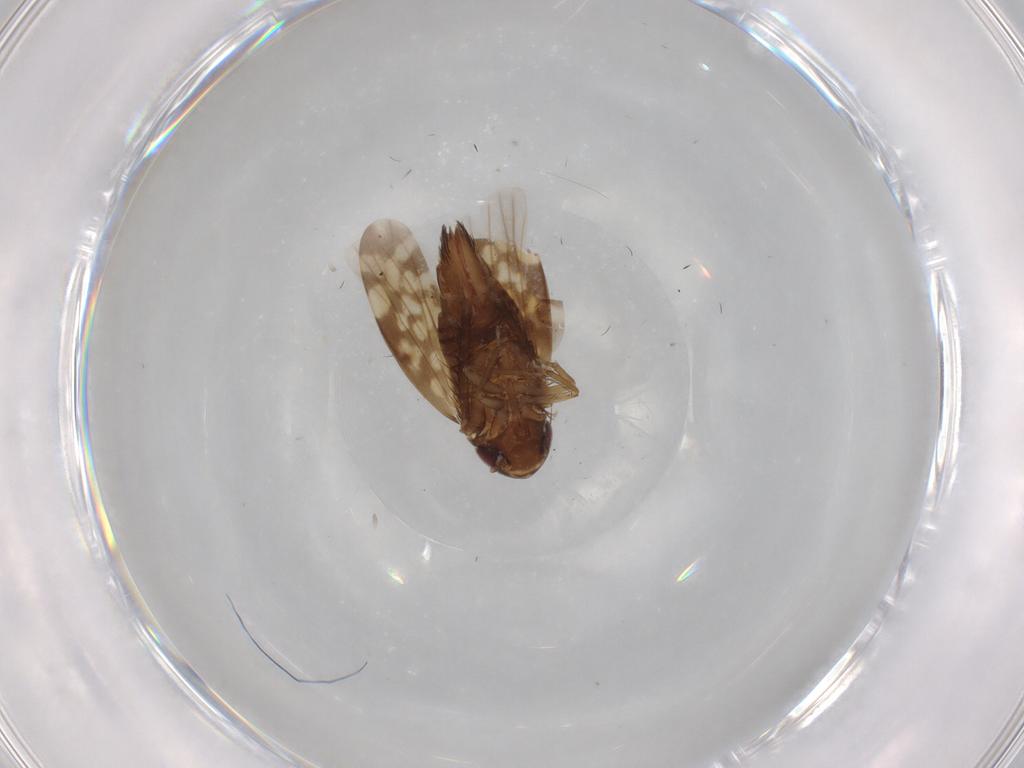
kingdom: Animalia
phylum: Arthropoda
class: Insecta
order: Hemiptera
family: Cicadellidae
